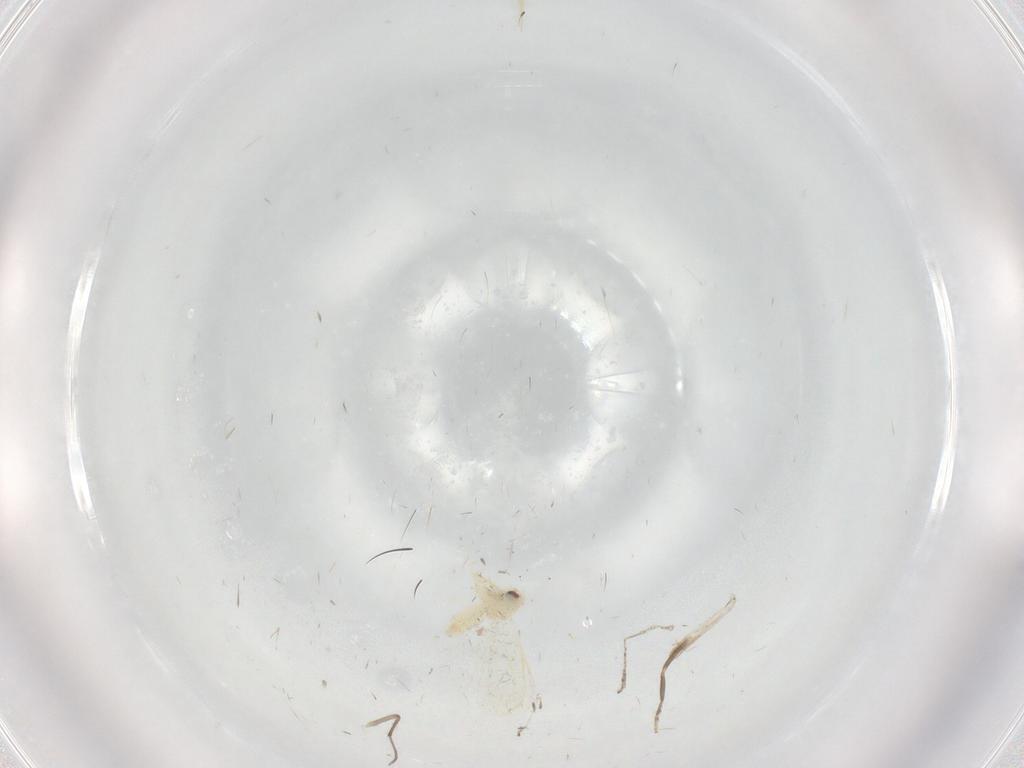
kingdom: Animalia
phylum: Arthropoda
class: Insecta
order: Hemiptera
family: Aleyrodidae
